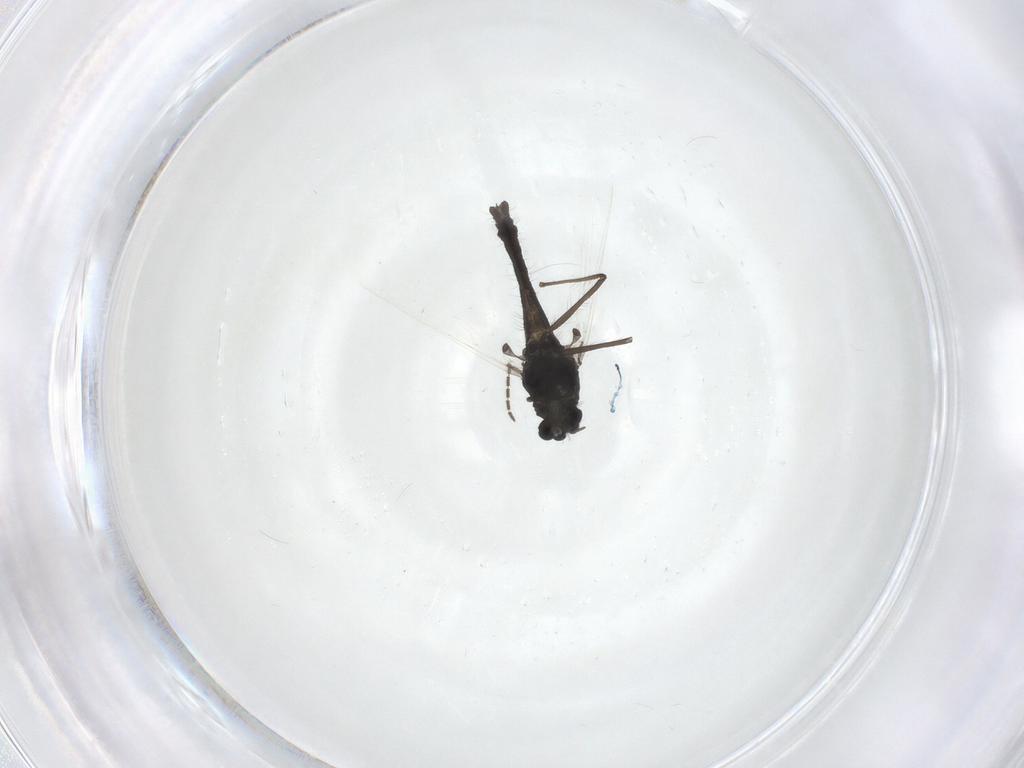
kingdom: Animalia
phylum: Arthropoda
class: Insecta
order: Diptera
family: Chironomidae
